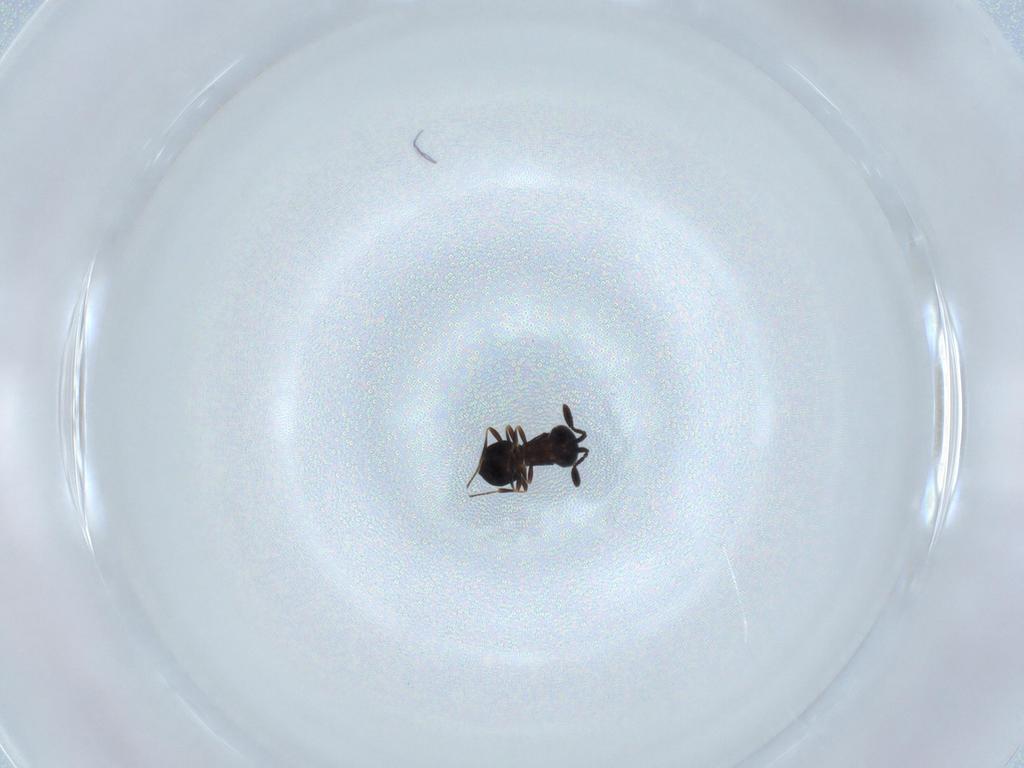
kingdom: Animalia
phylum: Arthropoda
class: Insecta
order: Hymenoptera
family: Scelionidae
